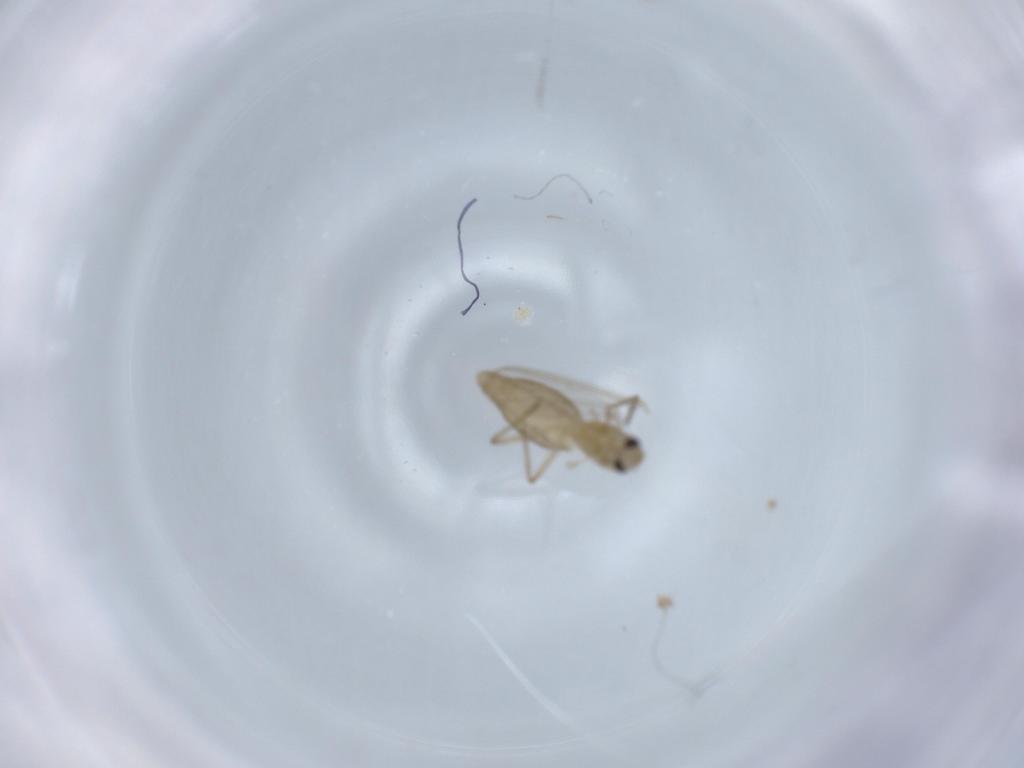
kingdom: Animalia
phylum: Arthropoda
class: Insecta
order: Diptera
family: Chironomidae
